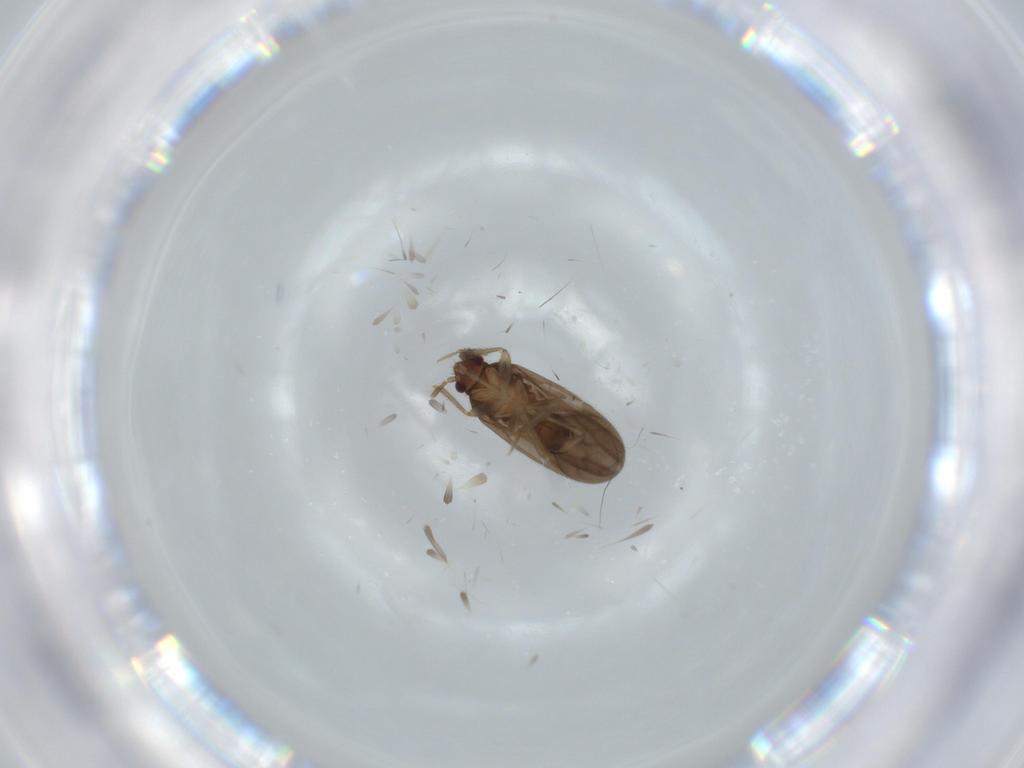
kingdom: Animalia
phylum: Arthropoda
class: Insecta
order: Hemiptera
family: Ceratocombidae
